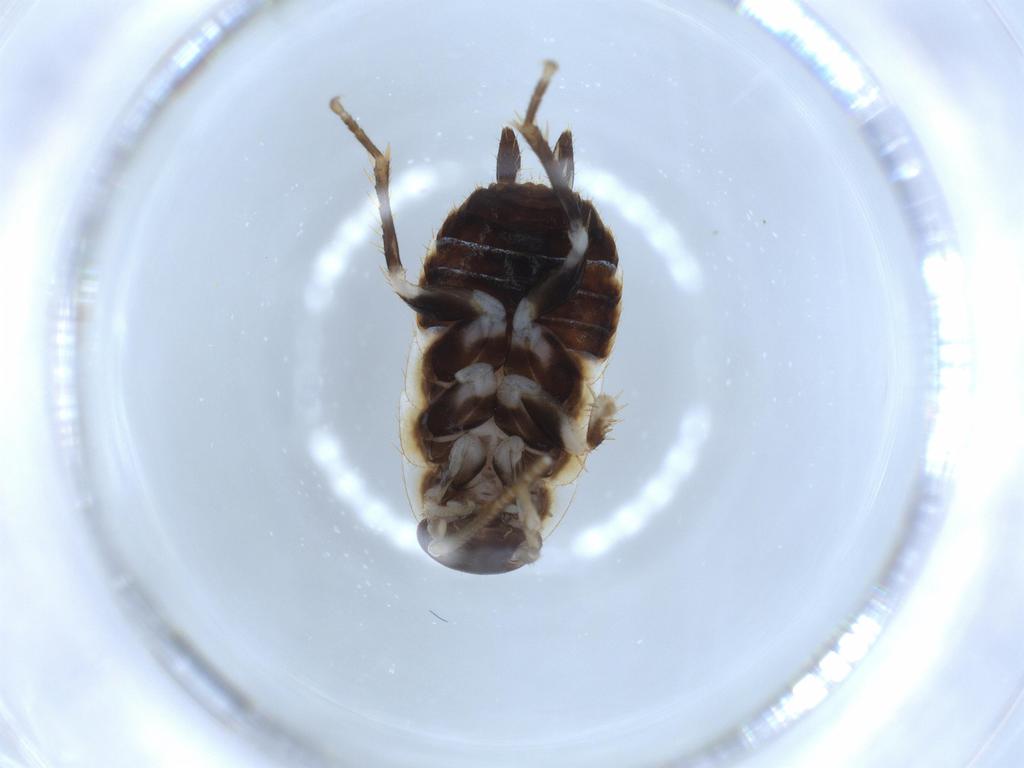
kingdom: Animalia
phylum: Arthropoda
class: Insecta
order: Blattodea
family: Ectobiidae
